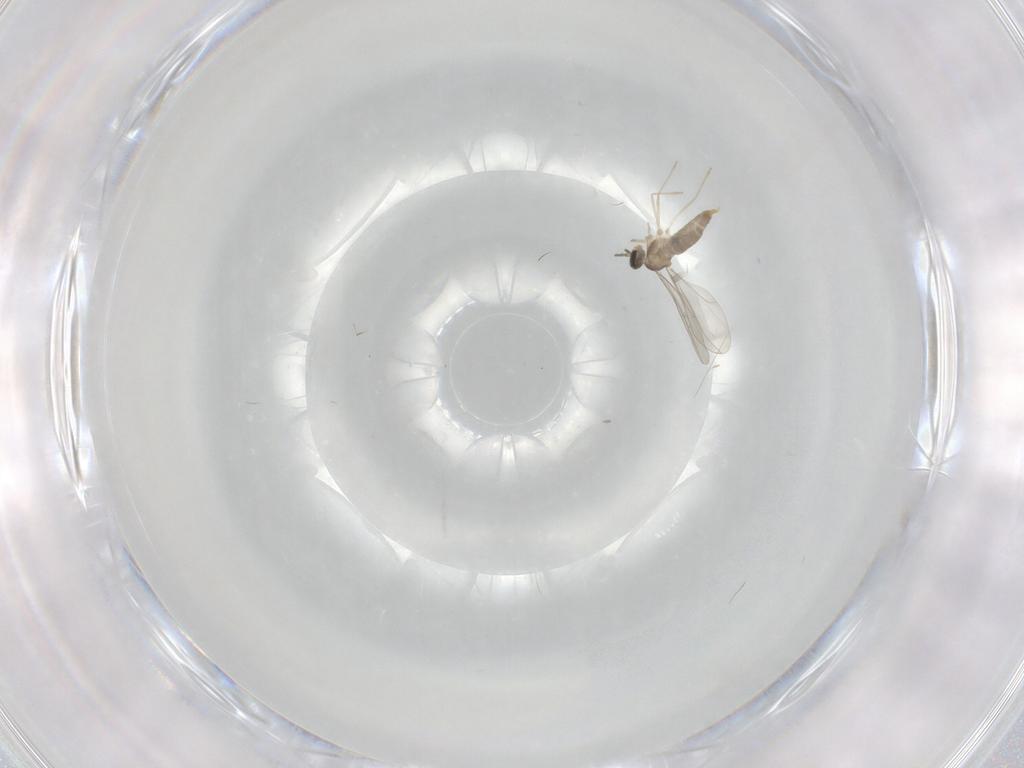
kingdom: Animalia
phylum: Arthropoda
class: Insecta
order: Diptera
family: Chironomidae
